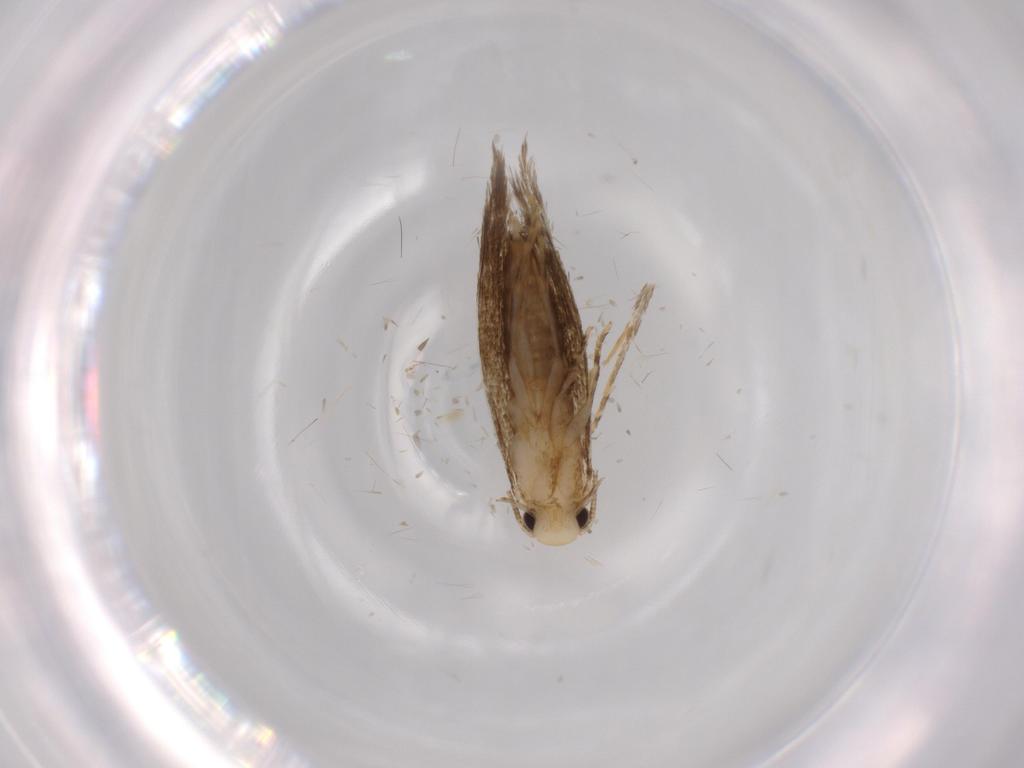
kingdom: Animalia
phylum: Arthropoda
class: Insecta
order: Lepidoptera
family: Tineidae
